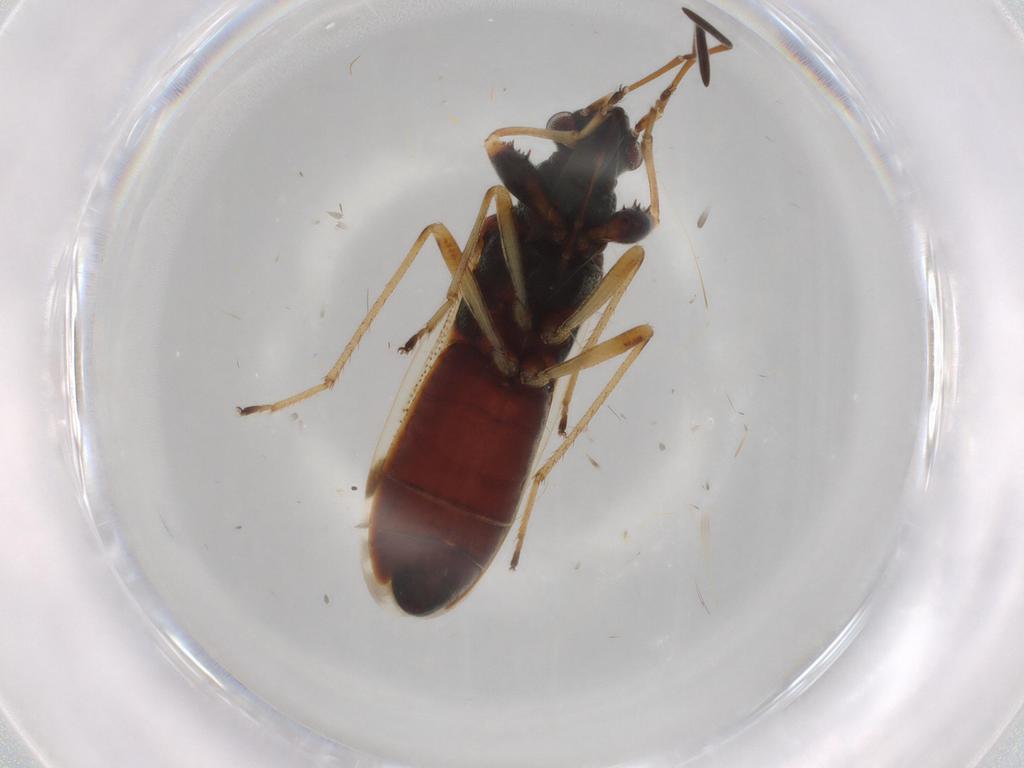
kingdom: Animalia
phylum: Arthropoda
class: Insecta
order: Hemiptera
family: Rhyparochromidae
